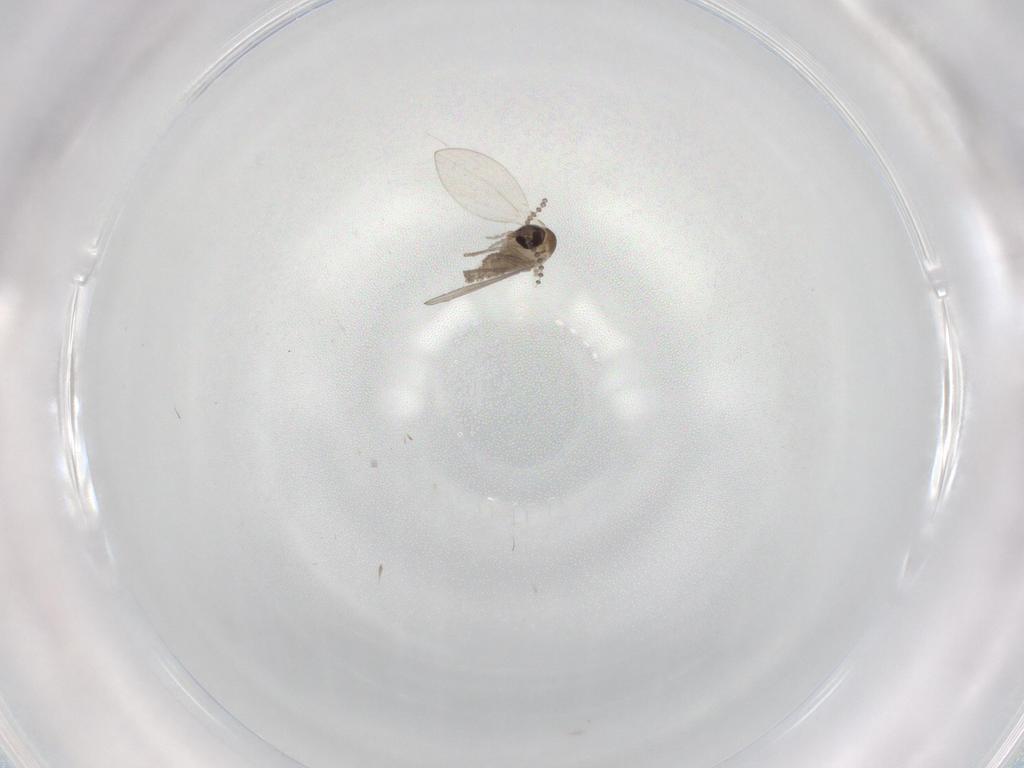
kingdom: Animalia
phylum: Arthropoda
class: Insecta
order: Diptera
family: Psychodidae
